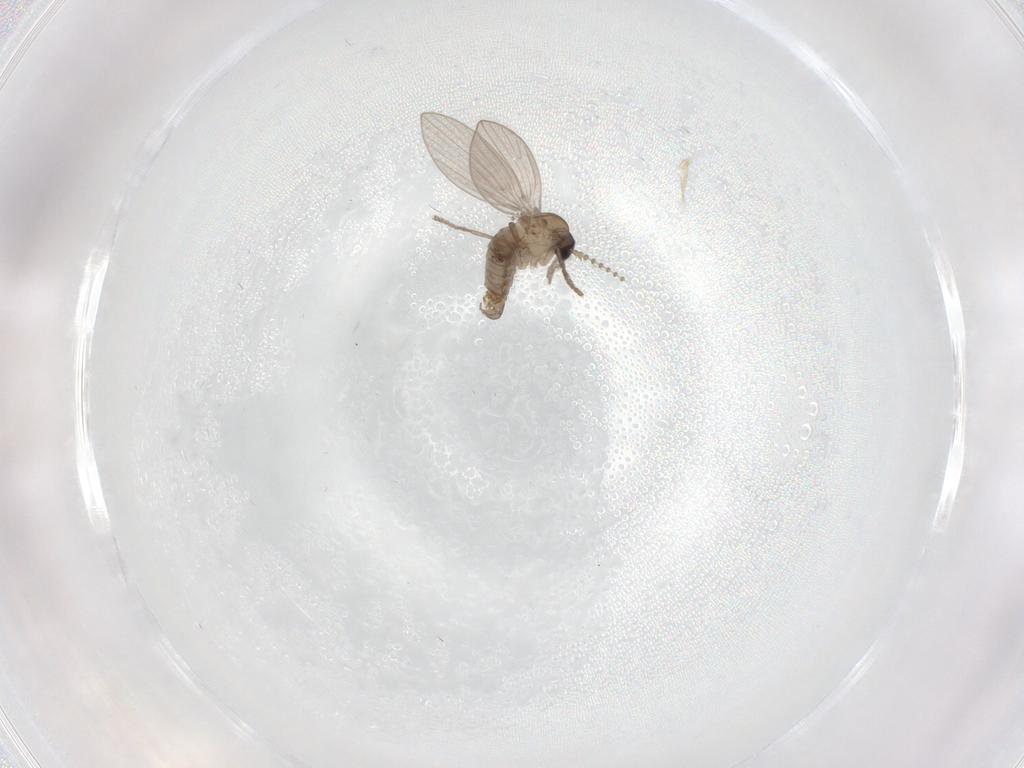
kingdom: Animalia
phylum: Arthropoda
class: Insecta
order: Diptera
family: Psychodidae
